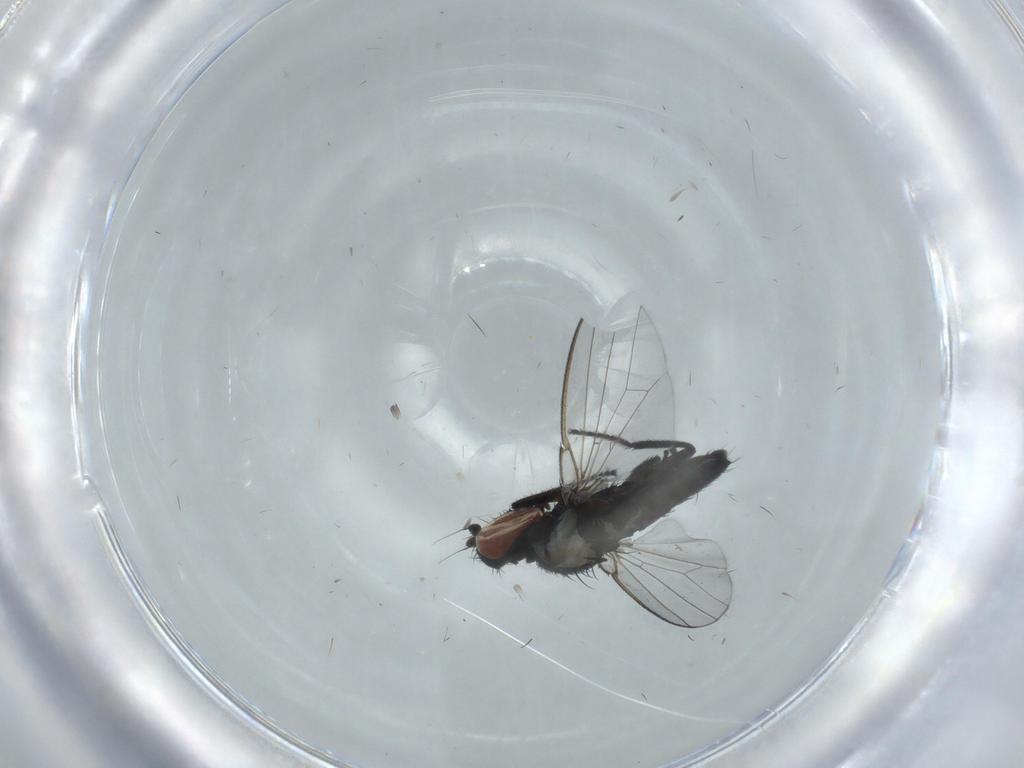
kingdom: Animalia
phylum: Arthropoda
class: Insecta
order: Diptera
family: Milichiidae
